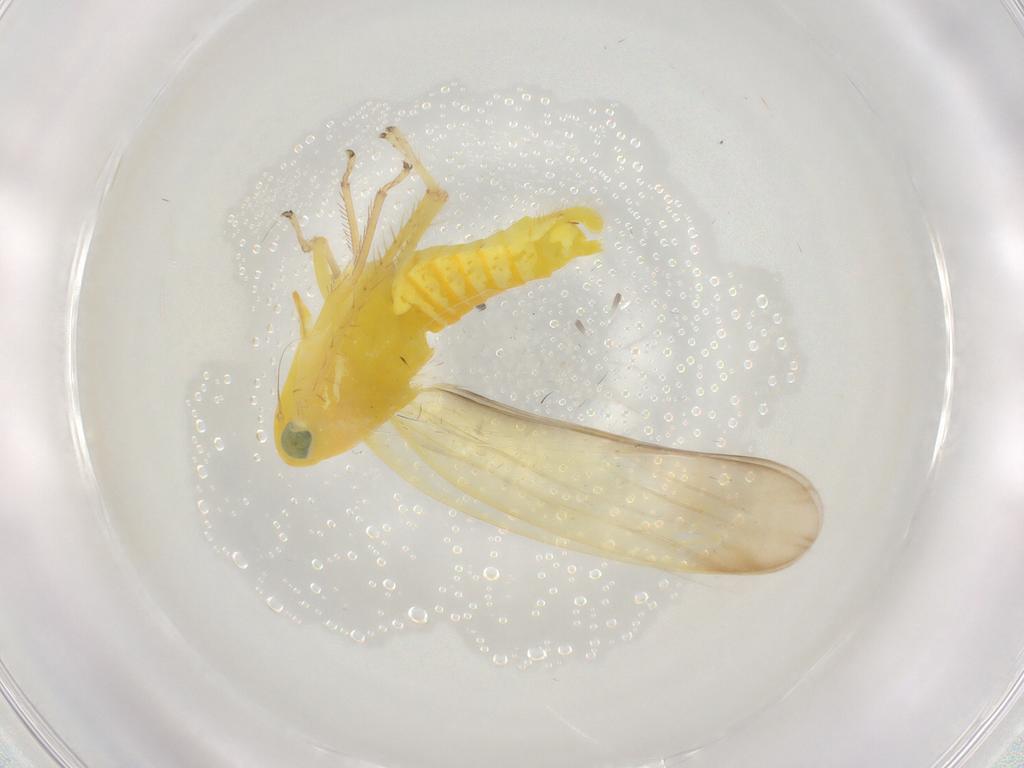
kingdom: Animalia
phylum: Arthropoda
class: Insecta
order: Hemiptera
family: Cicadellidae
